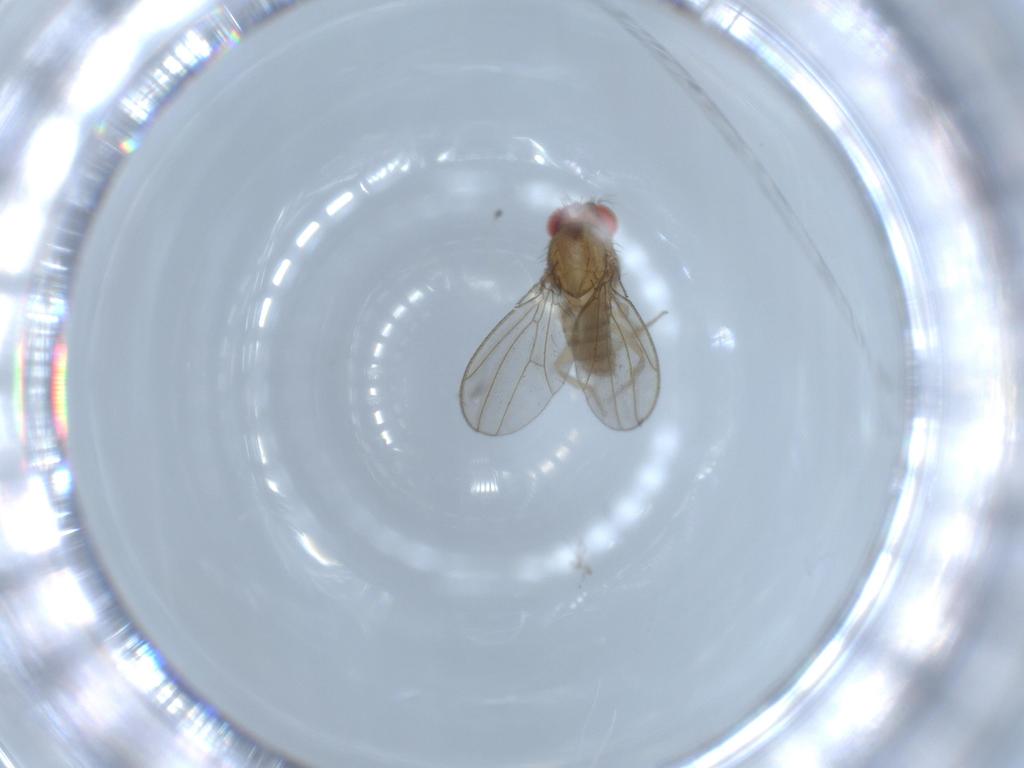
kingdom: Animalia
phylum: Arthropoda
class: Insecta
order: Diptera
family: Drosophilidae
